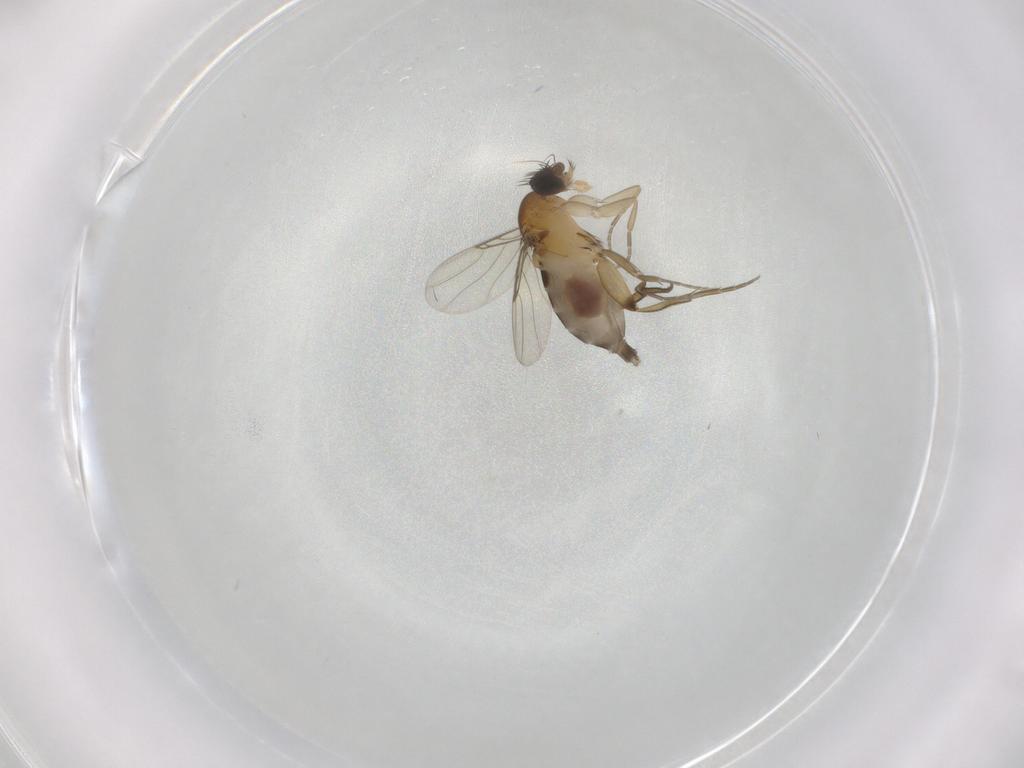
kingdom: Animalia
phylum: Arthropoda
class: Insecta
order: Diptera
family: Phoridae
